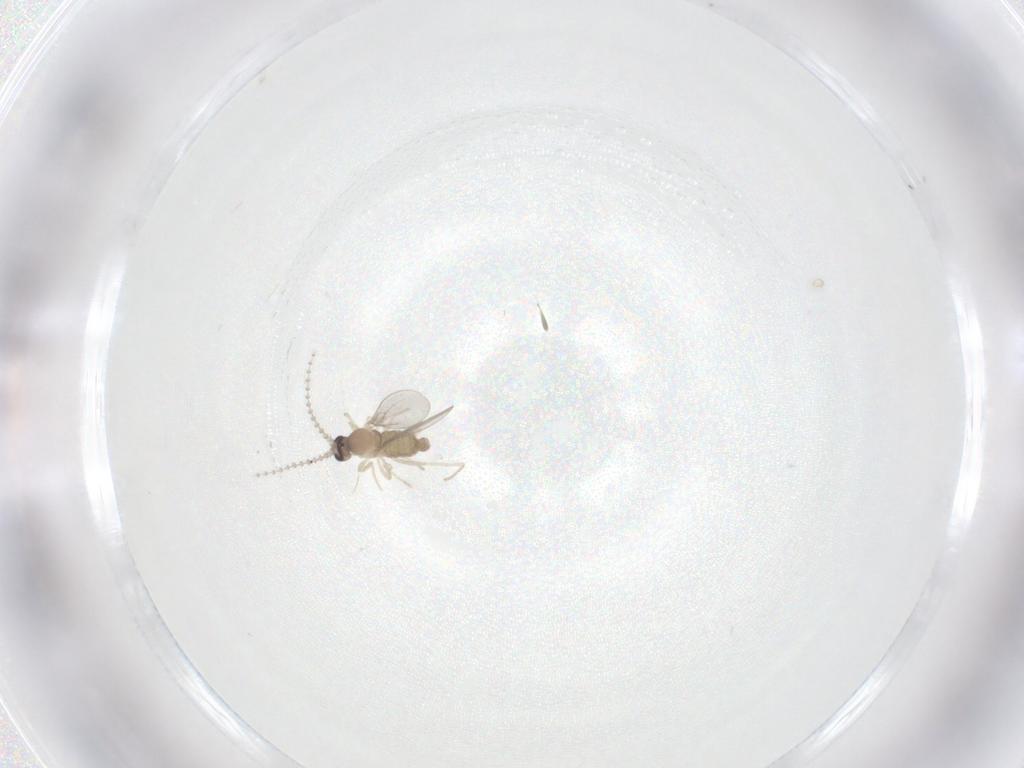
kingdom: Animalia
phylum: Arthropoda
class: Insecta
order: Diptera
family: Cecidomyiidae
